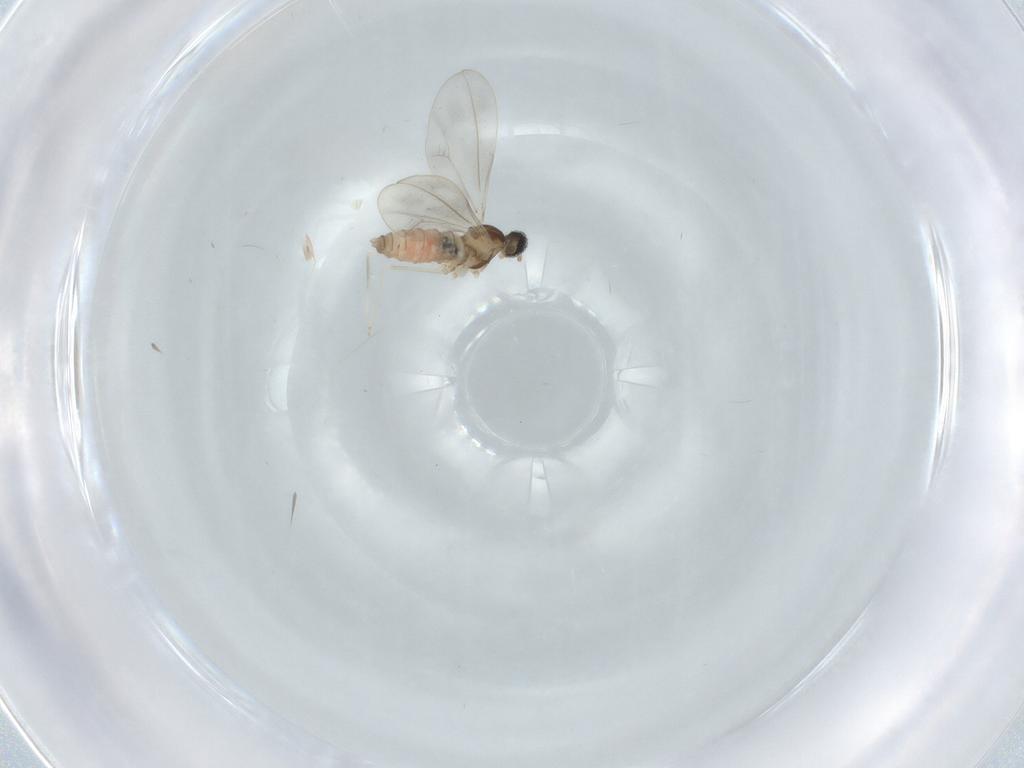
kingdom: Animalia
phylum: Arthropoda
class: Insecta
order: Diptera
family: Cecidomyiidae
